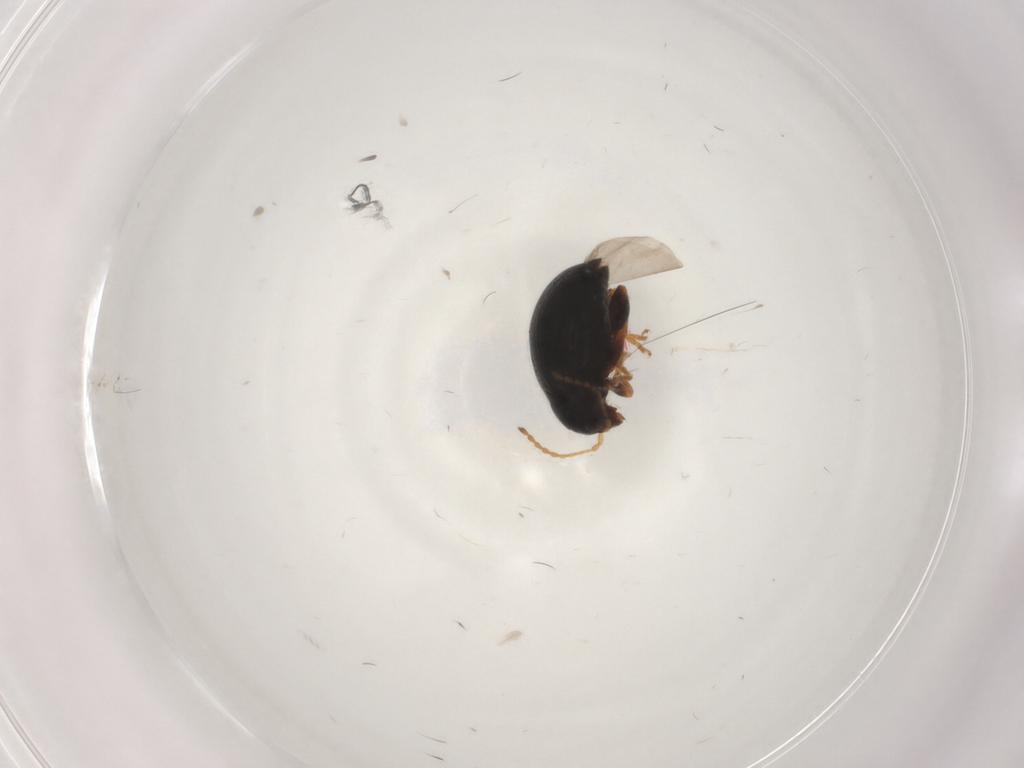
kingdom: Animalia
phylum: Arthropoda
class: Insecta
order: Coleoptera
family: Chrysomelidae
